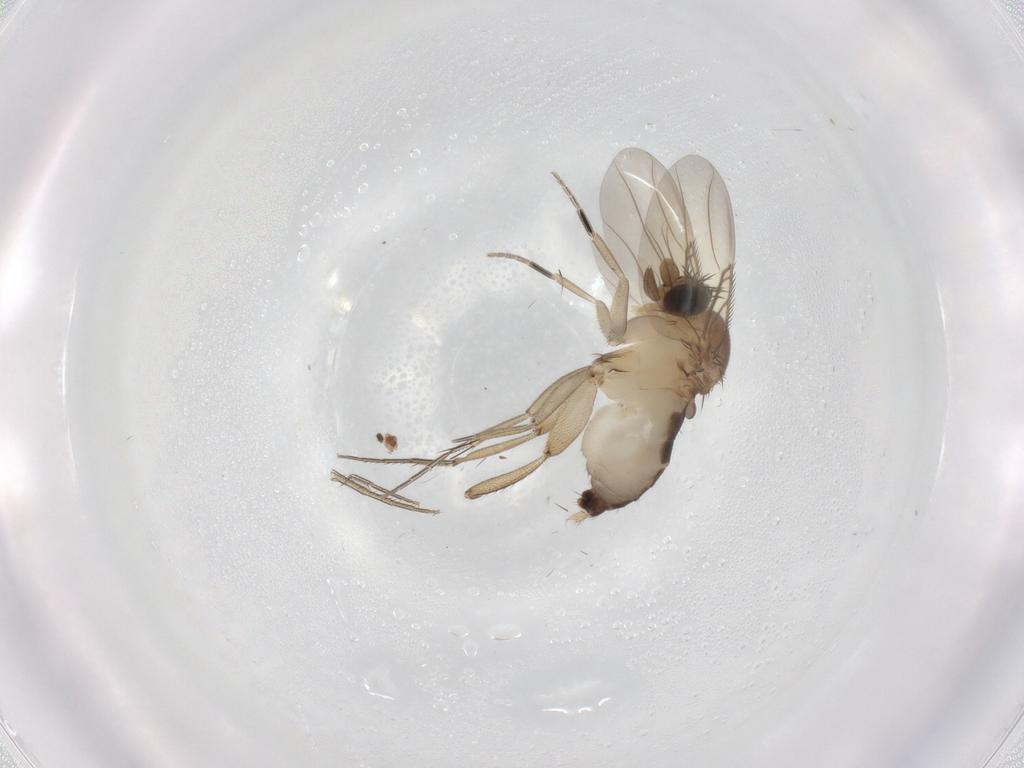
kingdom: Animalia
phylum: Arthropoda
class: Insecta
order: Diptera
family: Phoridae
